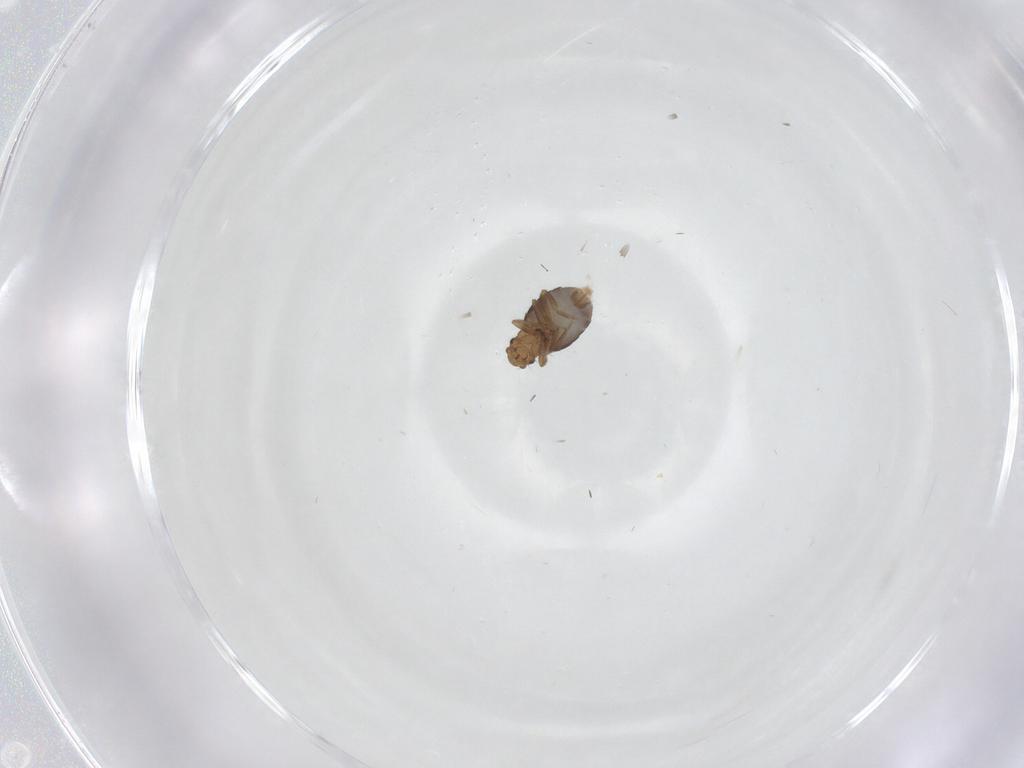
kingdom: Animalia
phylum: Arthropoda
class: Insecta
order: Diptera
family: Phoridae
